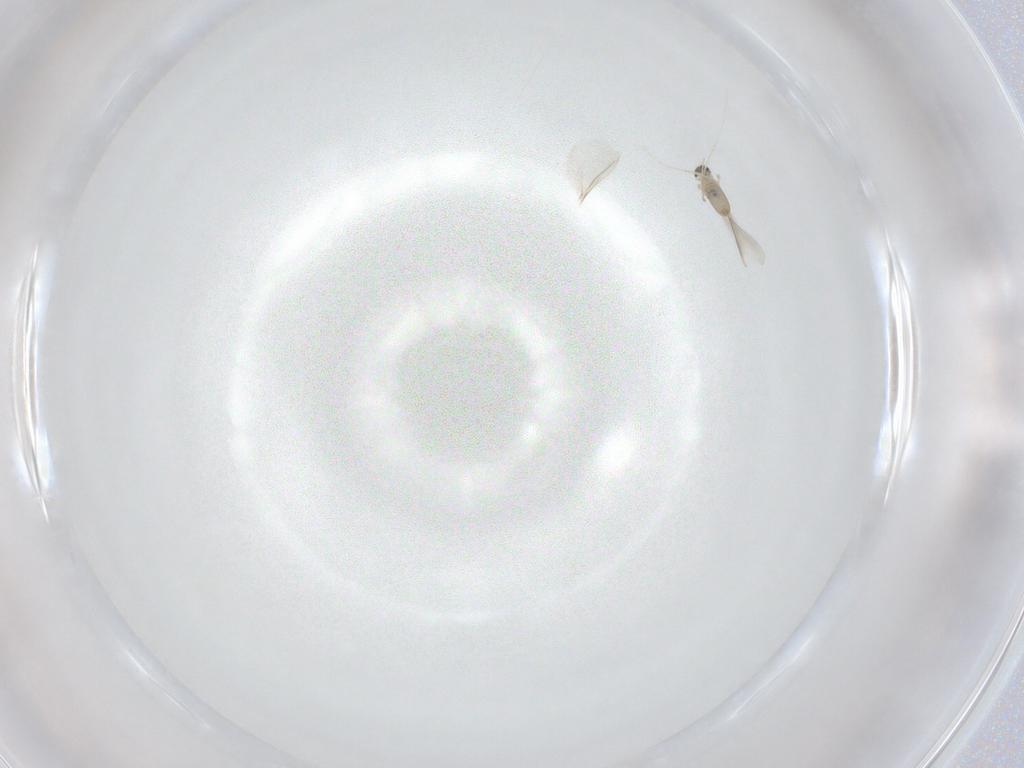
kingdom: Animalia
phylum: Arthropoda
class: Insecta
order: Diptera
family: Cecidomyiidae
